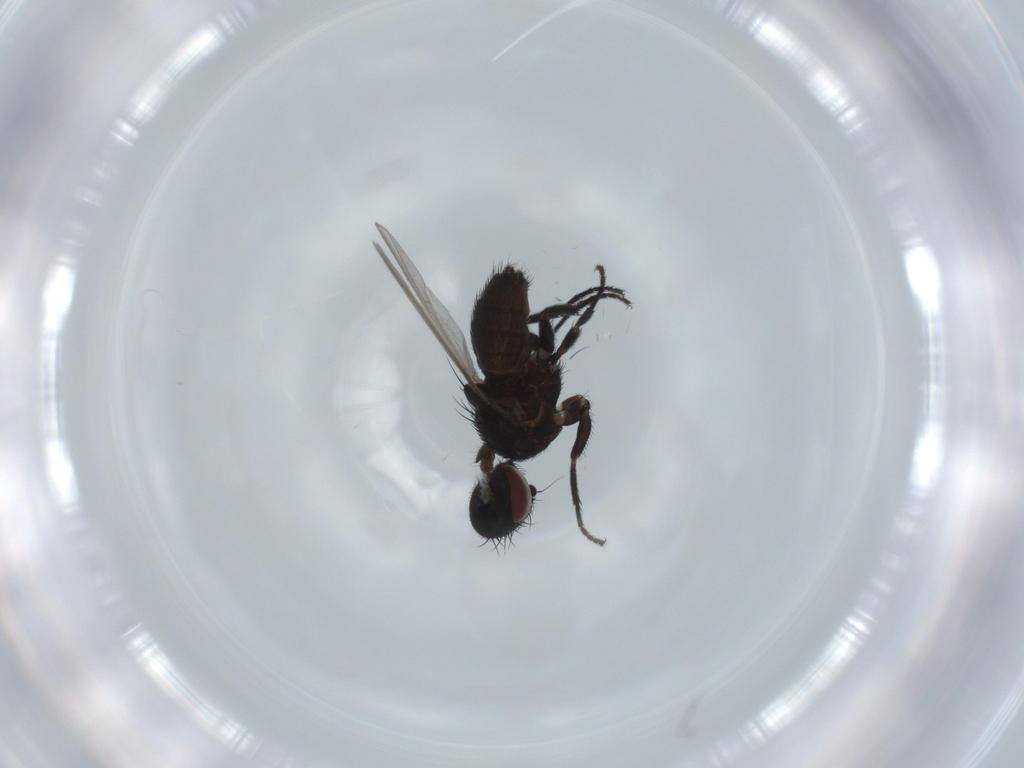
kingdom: Animalia
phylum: Arthropoda
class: Insecta
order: Diptera
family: Milichiidae
